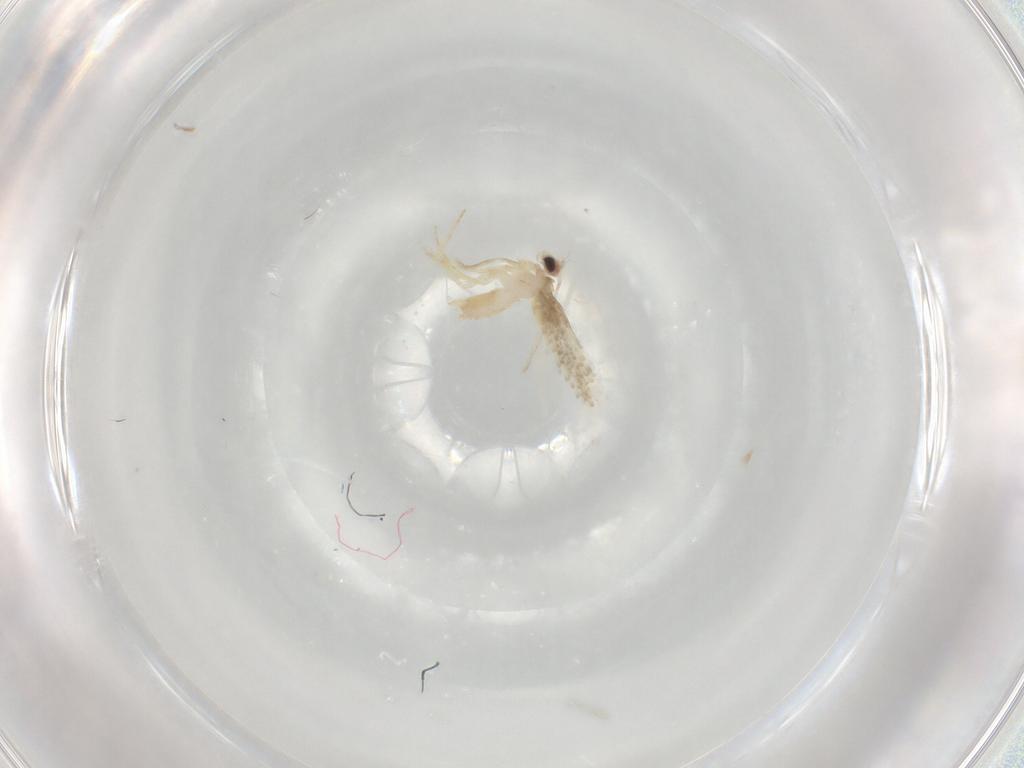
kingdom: Animalia
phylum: Arthropoda
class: Insecta
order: Lepidoptera
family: Nepticulidae
